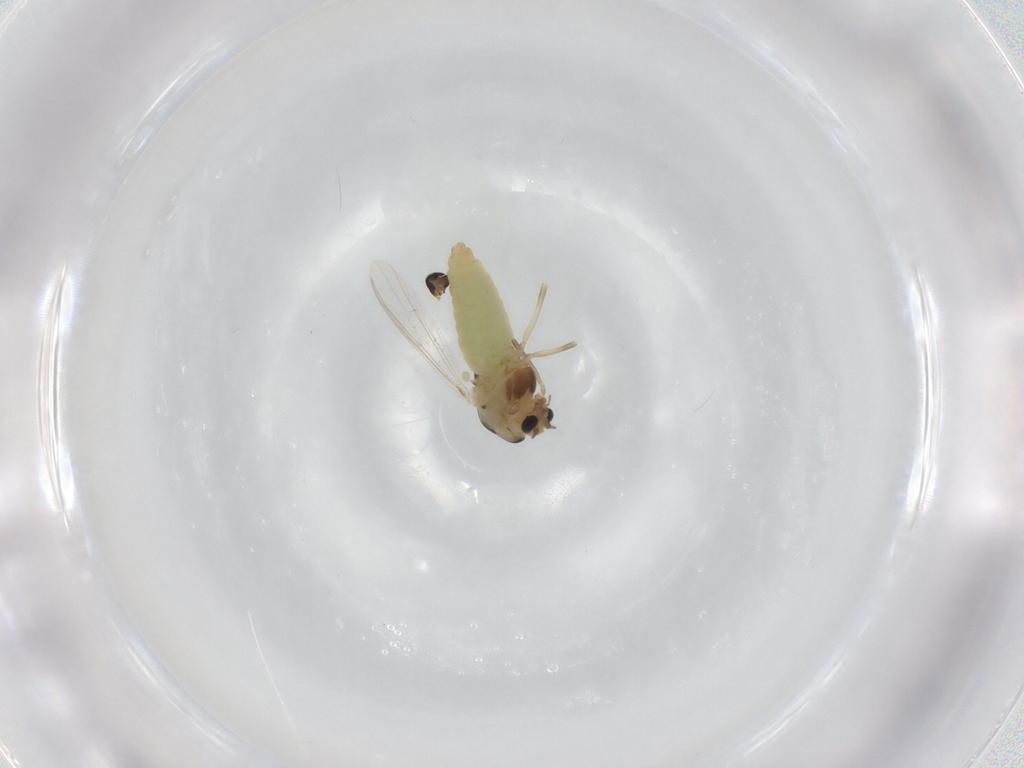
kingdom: Animalia
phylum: Arthropoda
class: Insecta
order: Diptera
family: Chironomidae
